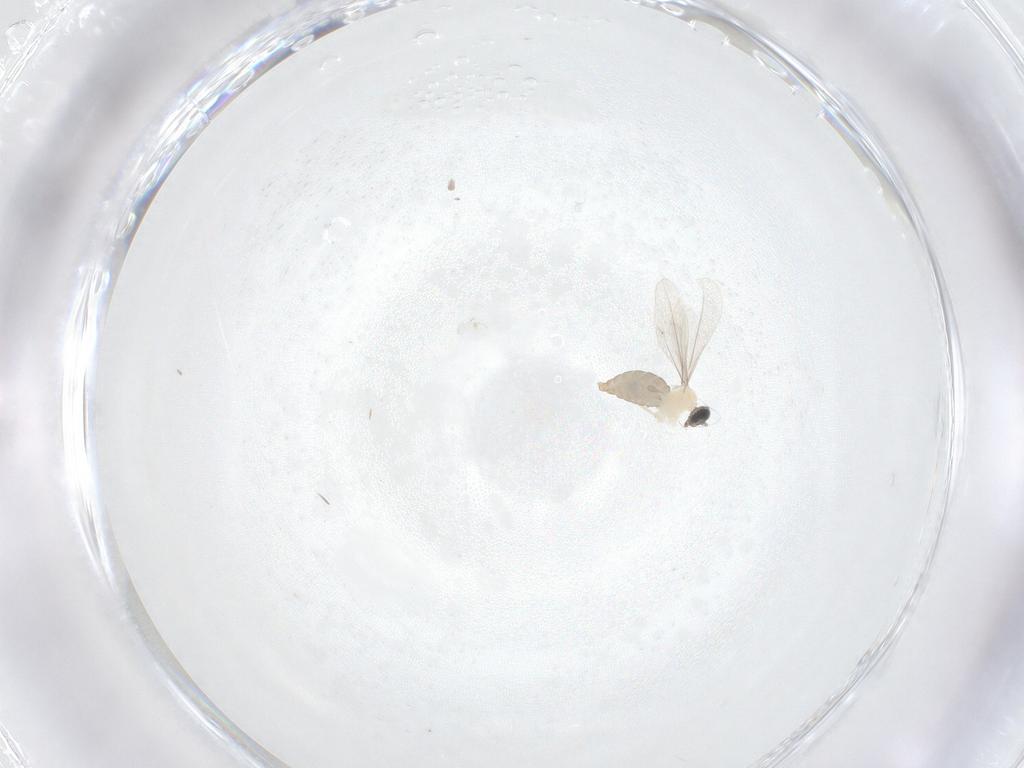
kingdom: Animalia
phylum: Arthropoda
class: Insecta
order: Diptera
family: Cecidomyiidae
